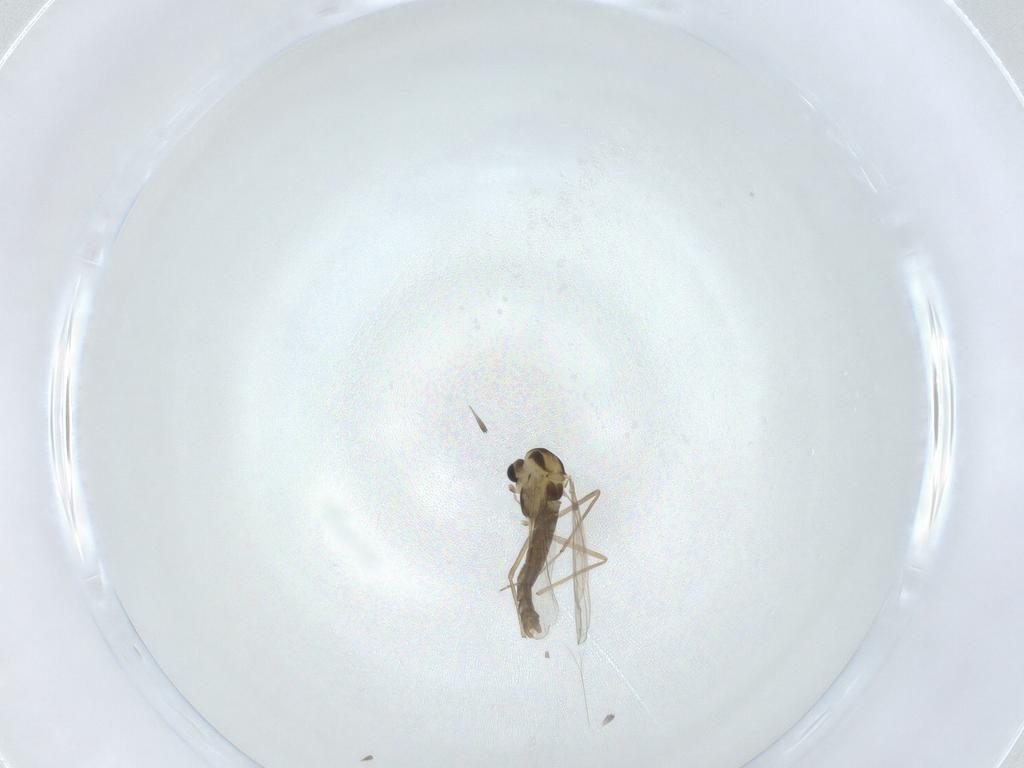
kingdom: Animalia
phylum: Arthropoda
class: Insecta
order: Diptera
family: Chironomidae
